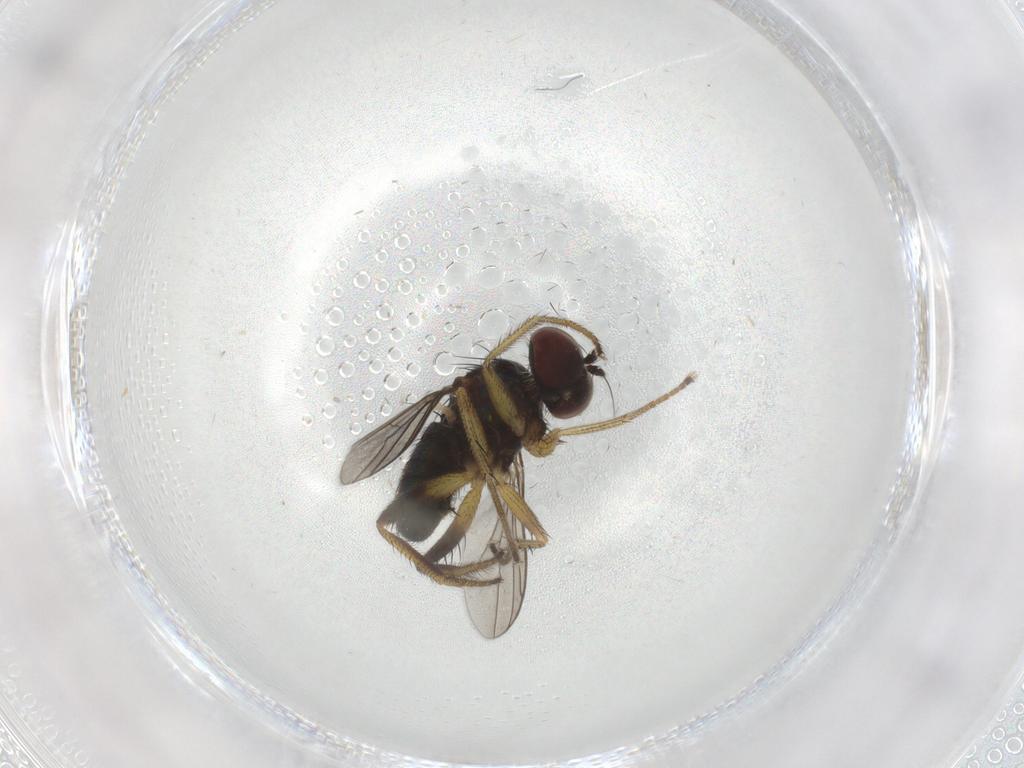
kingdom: Animalia
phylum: Arthropoda
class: Insecta
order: Diptera
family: Dolichopodidae
